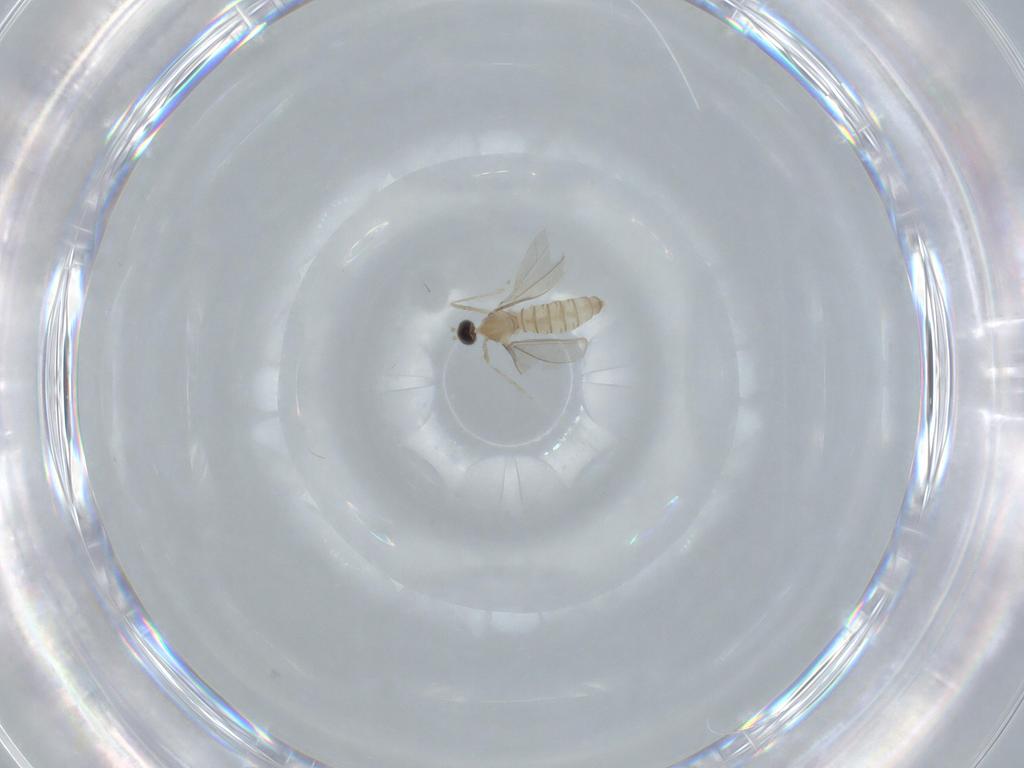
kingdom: Animalia
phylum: Arthropoda
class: Insecta
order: Diptera
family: Cecidomyiidae
